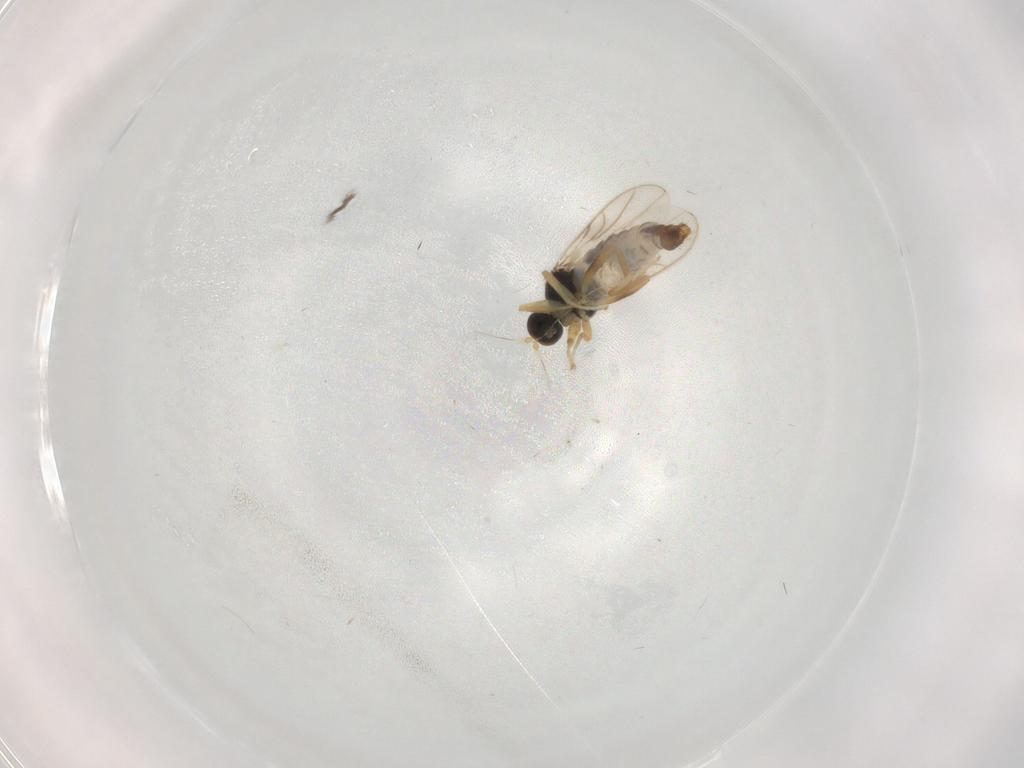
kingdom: Animalia
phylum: Arthropoda
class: Insecta
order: Diptera
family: Hybotidae
